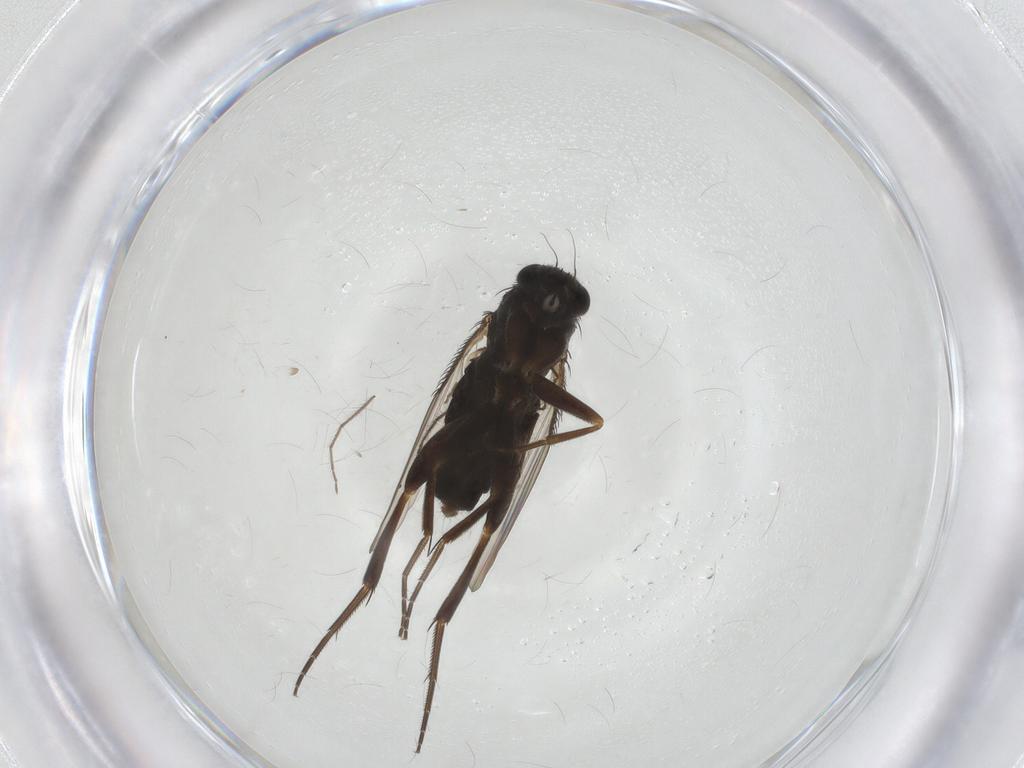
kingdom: Animalia
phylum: Arthropoda
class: Insecta
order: Diptera
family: Phoridae
